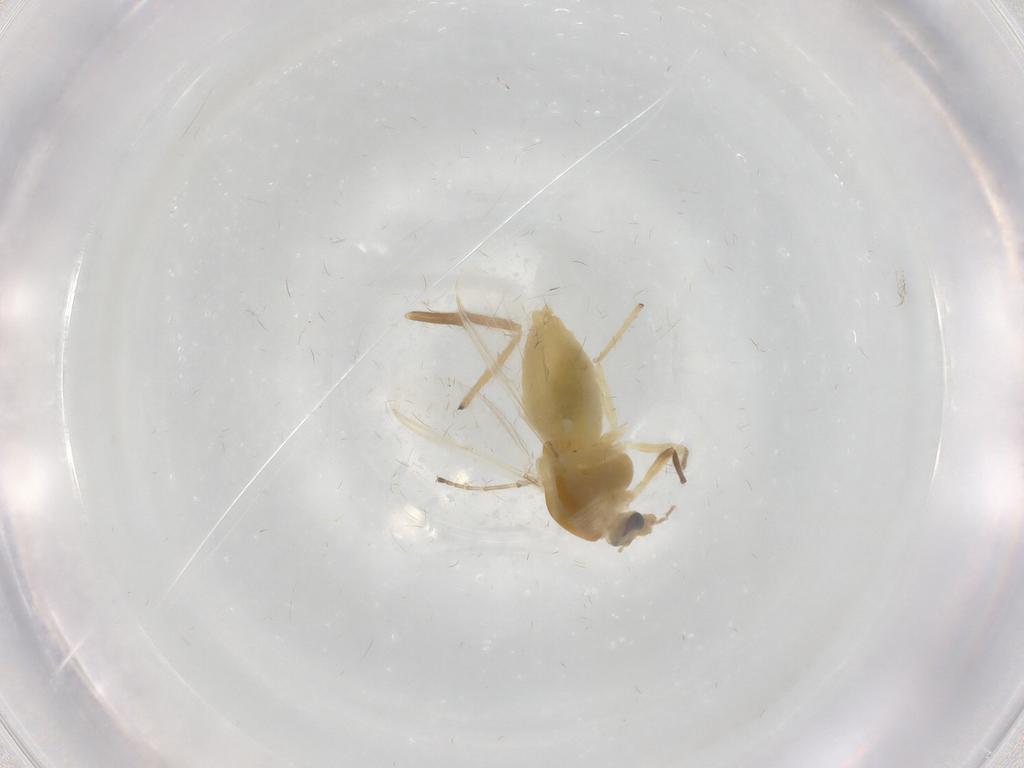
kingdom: Animalia
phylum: Arthropoda
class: Insecta
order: Diptera
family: Chironomidae
